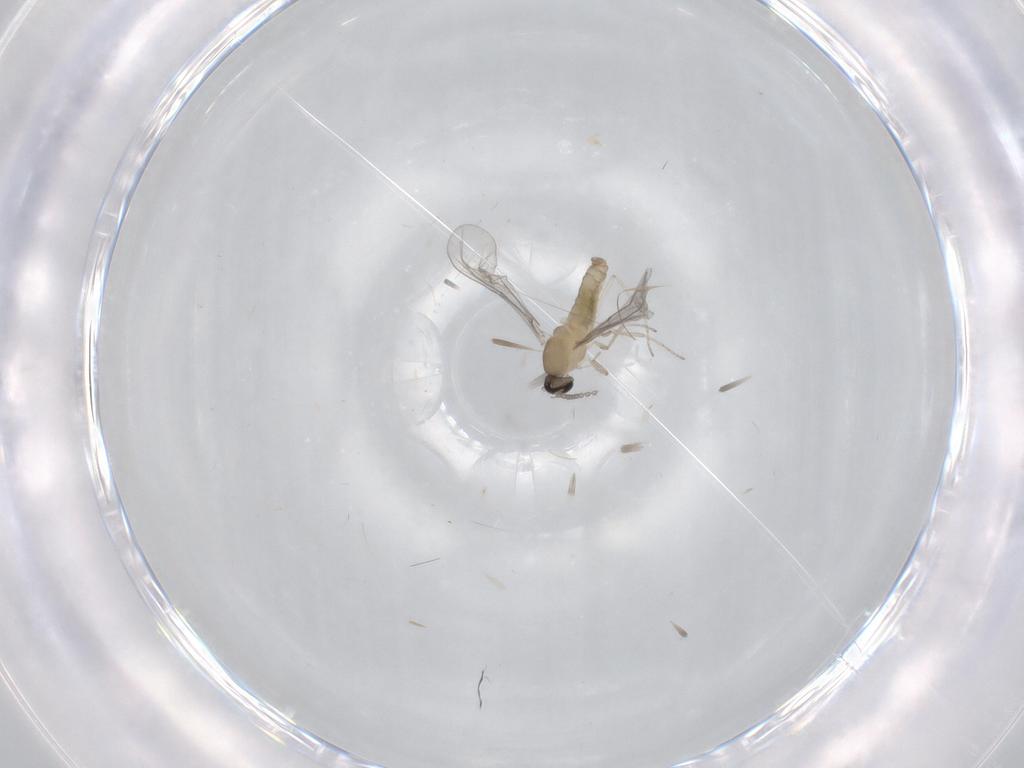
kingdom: Animalia
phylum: Arthropoda
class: Insecta
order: Diptera
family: Cecidomyiidae
